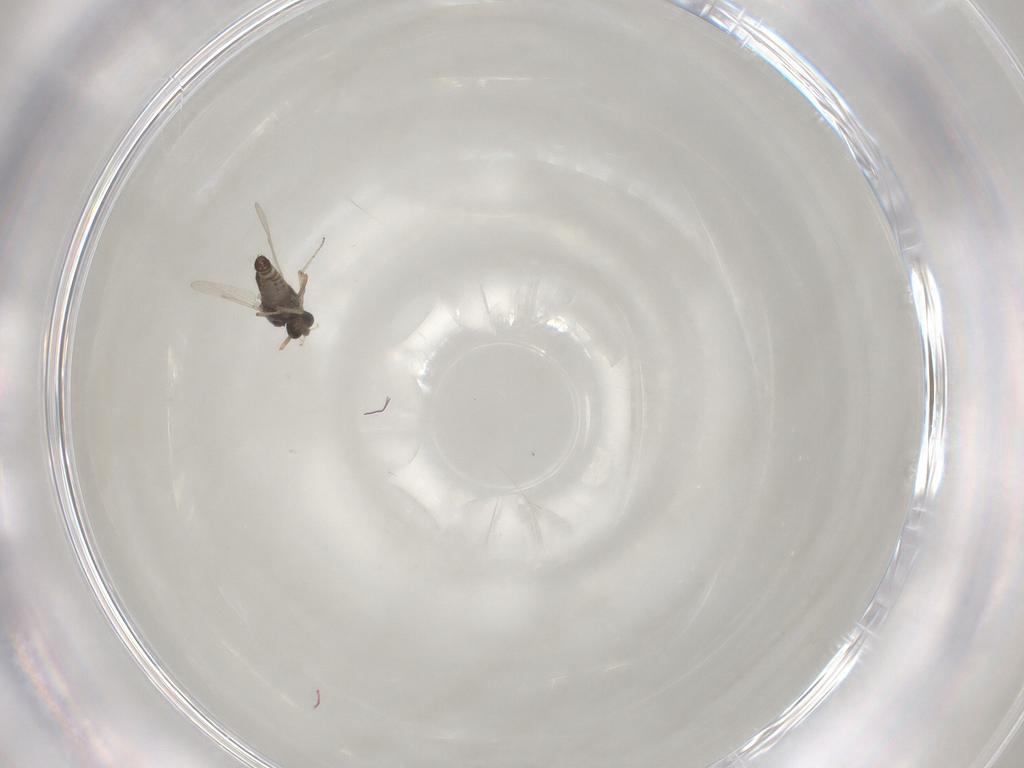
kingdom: Animalia
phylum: Arthropoda
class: Insecta
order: Diptera
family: Ceratopogonidae
